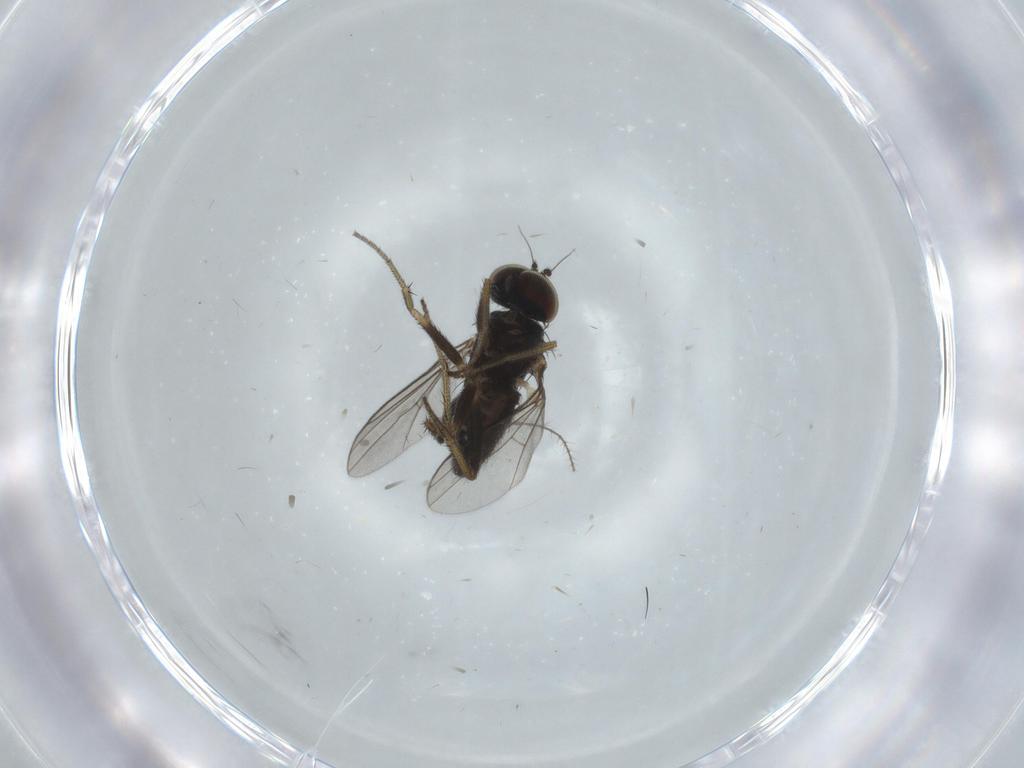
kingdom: Animalia
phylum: Arthropoda
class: Insecta
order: Diptera
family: Limoniidae
